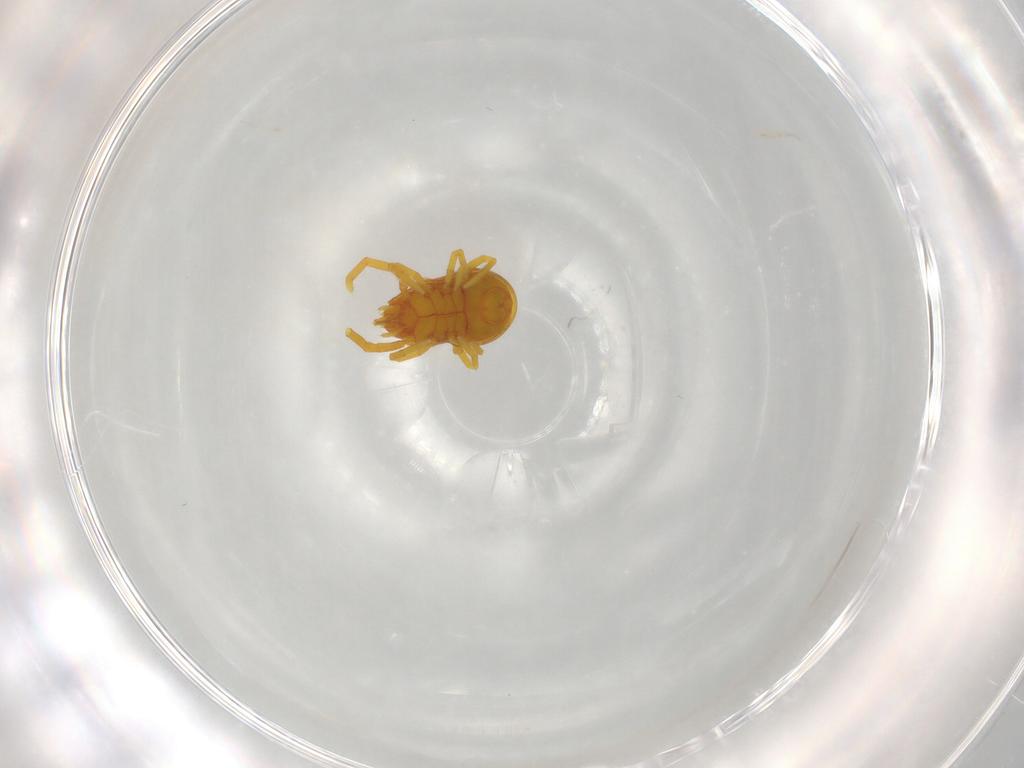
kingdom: Animalia
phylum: Arthropoda
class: Arachnida
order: Trombidiformes
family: Labidostommidae
